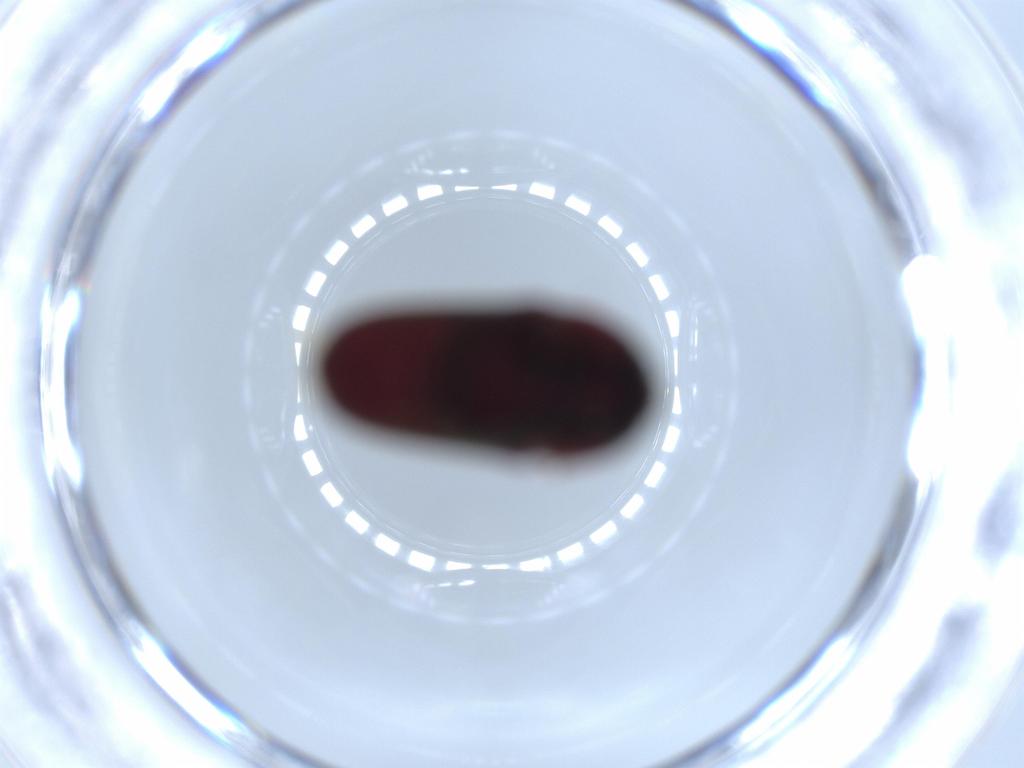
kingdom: Animalia
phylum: Arthropoda
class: Insecta
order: Coleoptera
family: Throscidae
